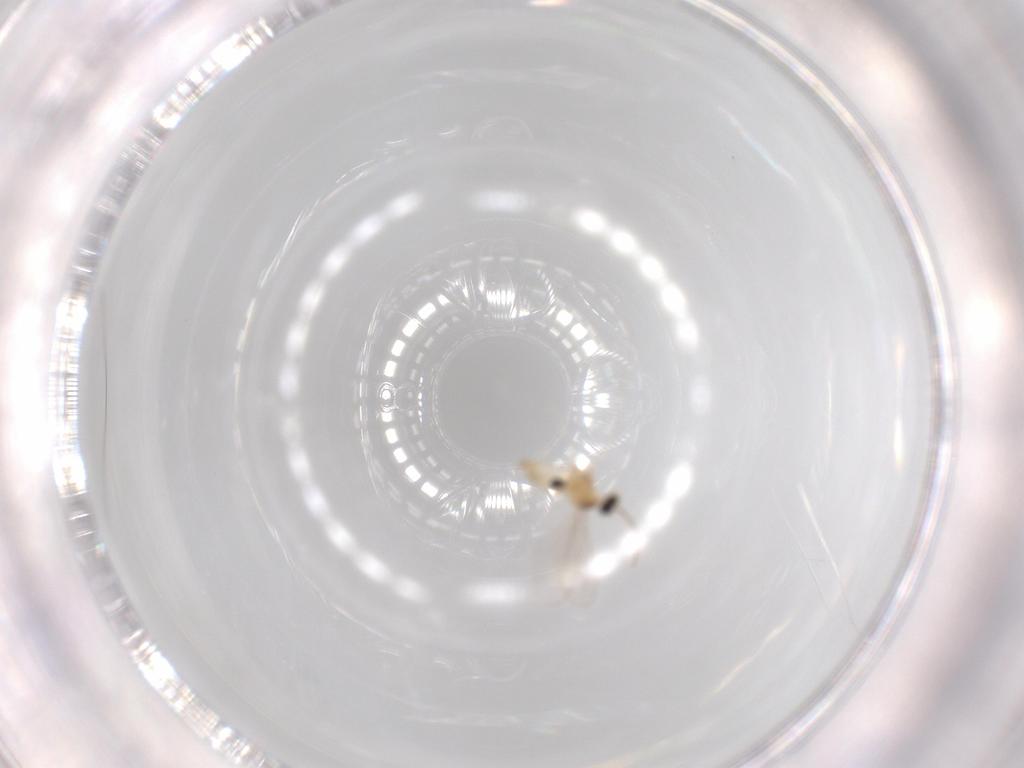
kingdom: Animalia
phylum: Arthropoda
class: Insecta
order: Diptera
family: Cecidomyiidae
